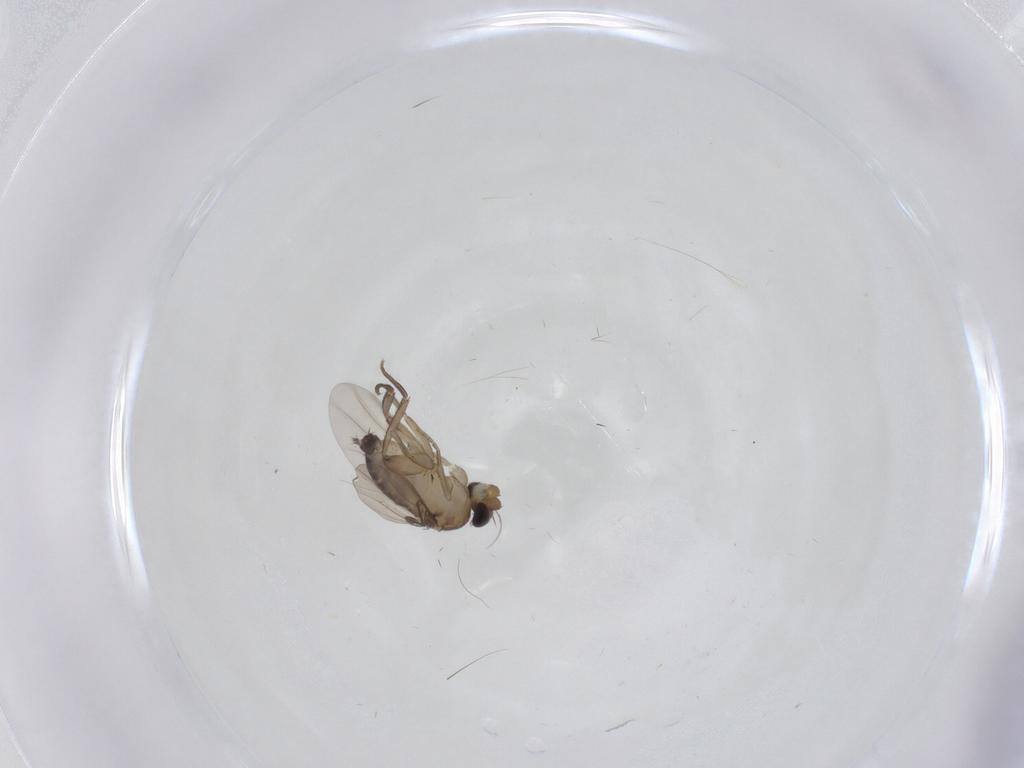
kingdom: Animalia
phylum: Arthropoda
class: Insecta
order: Diptera
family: Phoridae
